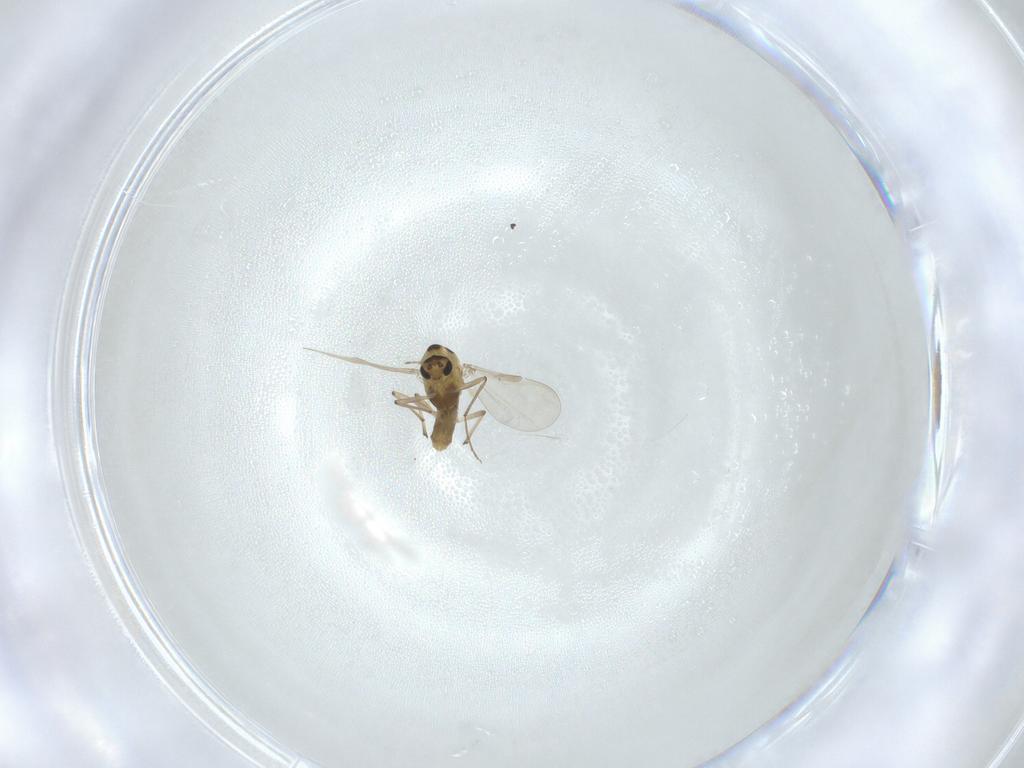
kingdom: Animalia
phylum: Arthropoda
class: Insecta
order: Diptera
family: Chironomidae
